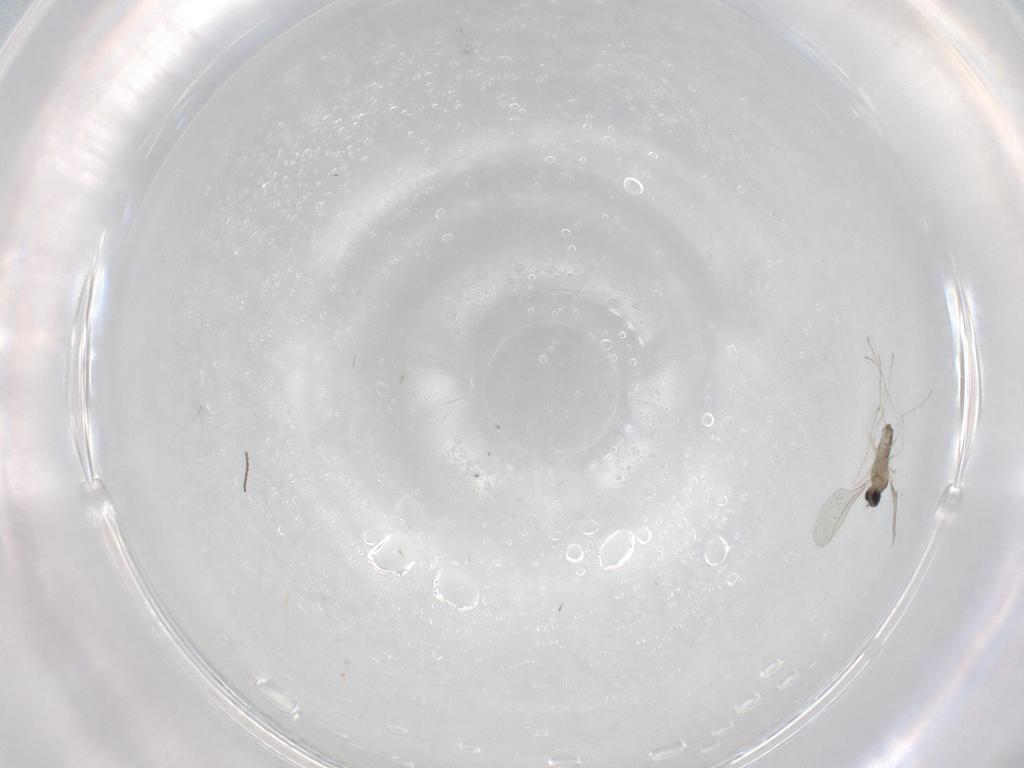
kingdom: Animalia
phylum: Arthropoda
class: Insecta
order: Diptera
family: Cecidomyiidae
